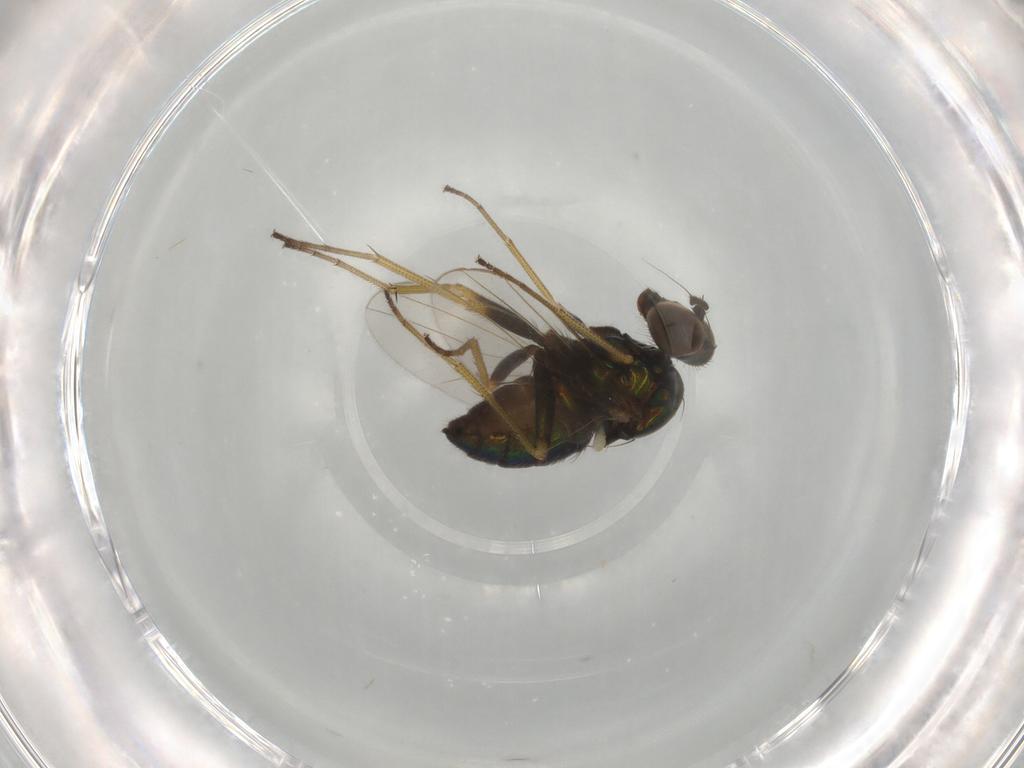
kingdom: Animalia
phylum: Arthropoda
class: Insecta
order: Diptera
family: Dolichopodidae
